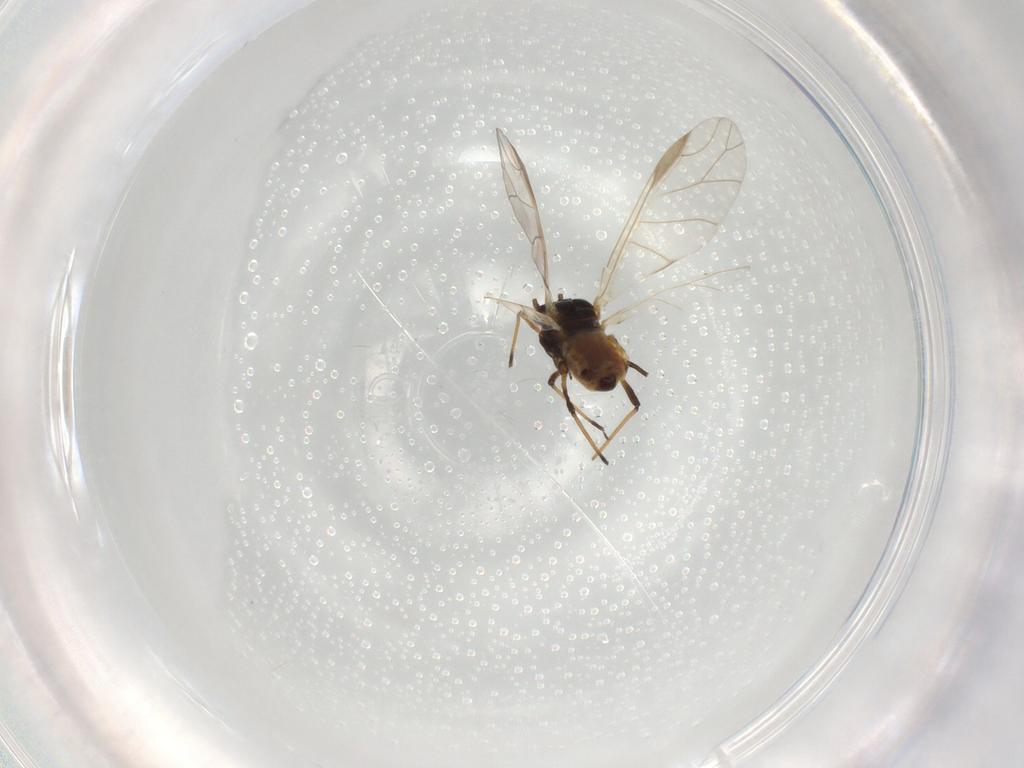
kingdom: Animalia
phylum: Arthropoda
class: Insecta
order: Hemiptera
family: Aphididae
